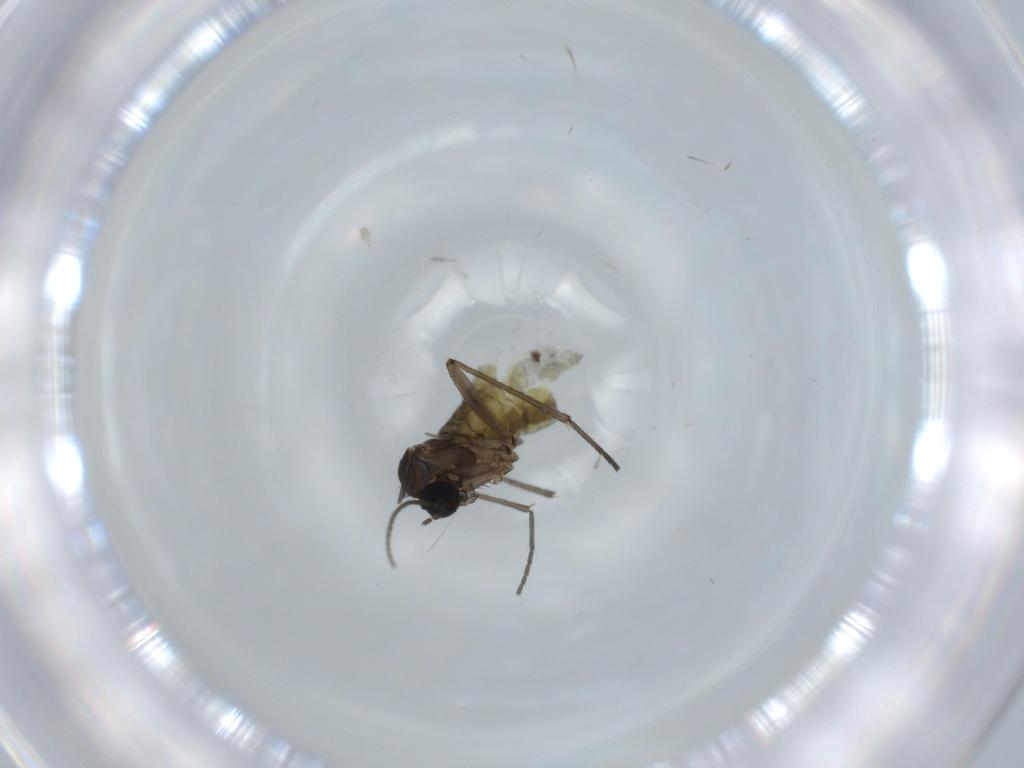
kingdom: Animalia
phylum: Arthropoda
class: Insecta
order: Diptera
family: Sciaridae
